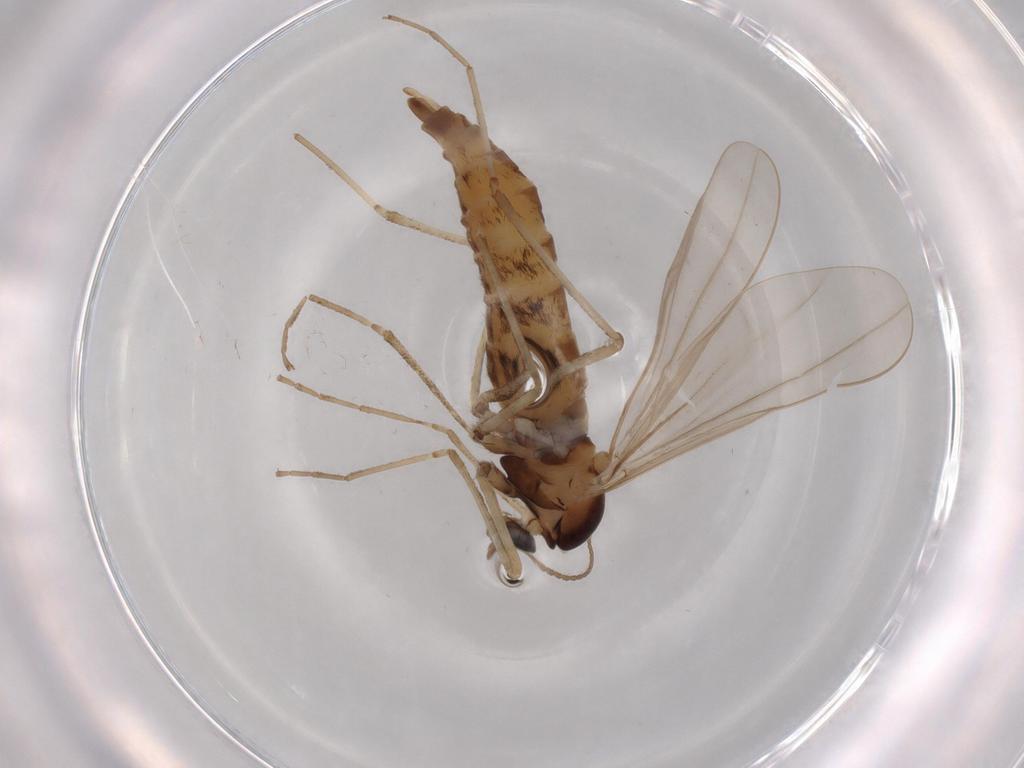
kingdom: Animalia
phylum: Arthropoda
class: Insecta
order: Diptera
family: Cecidomyiidae
